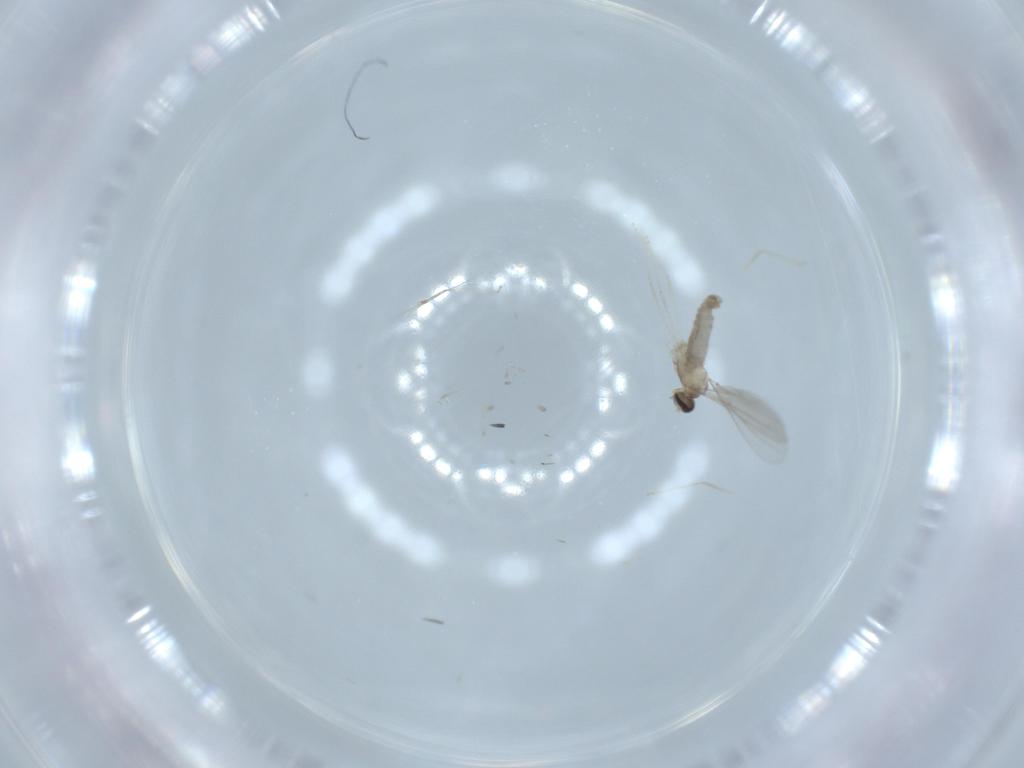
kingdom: Animalia
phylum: Arthropoda
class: Insecta
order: Diptera
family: Cecidomyiidae
